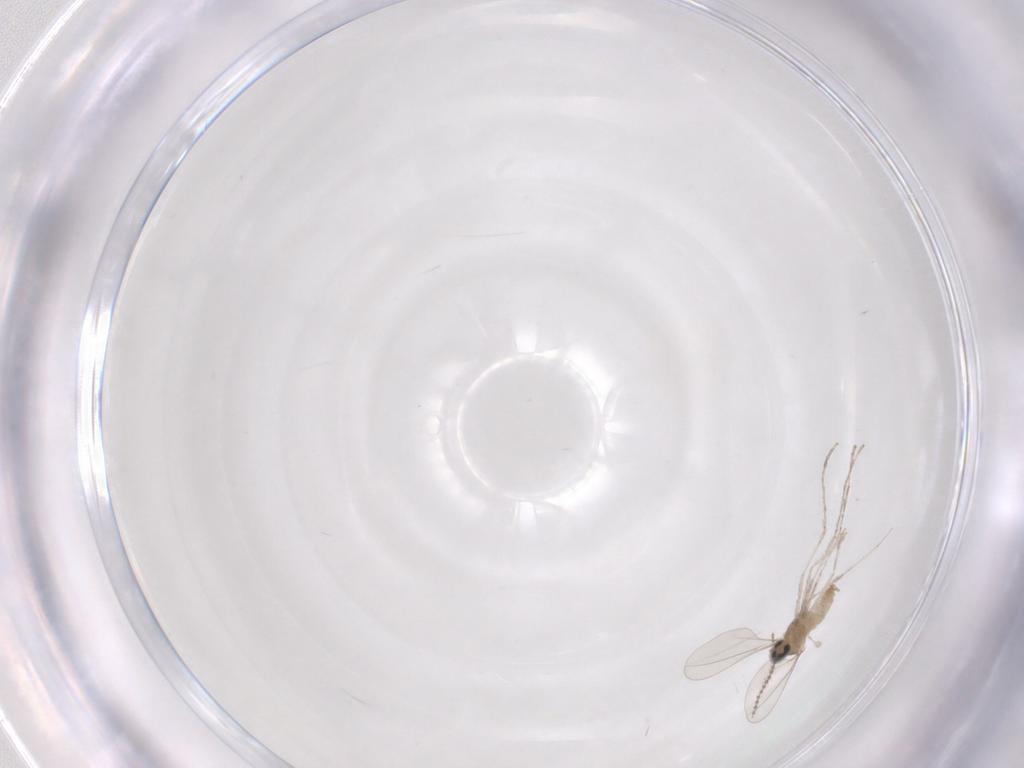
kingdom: Animalia
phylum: Arthropoda
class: Insecta
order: Diptera
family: Cecidomyiidae
